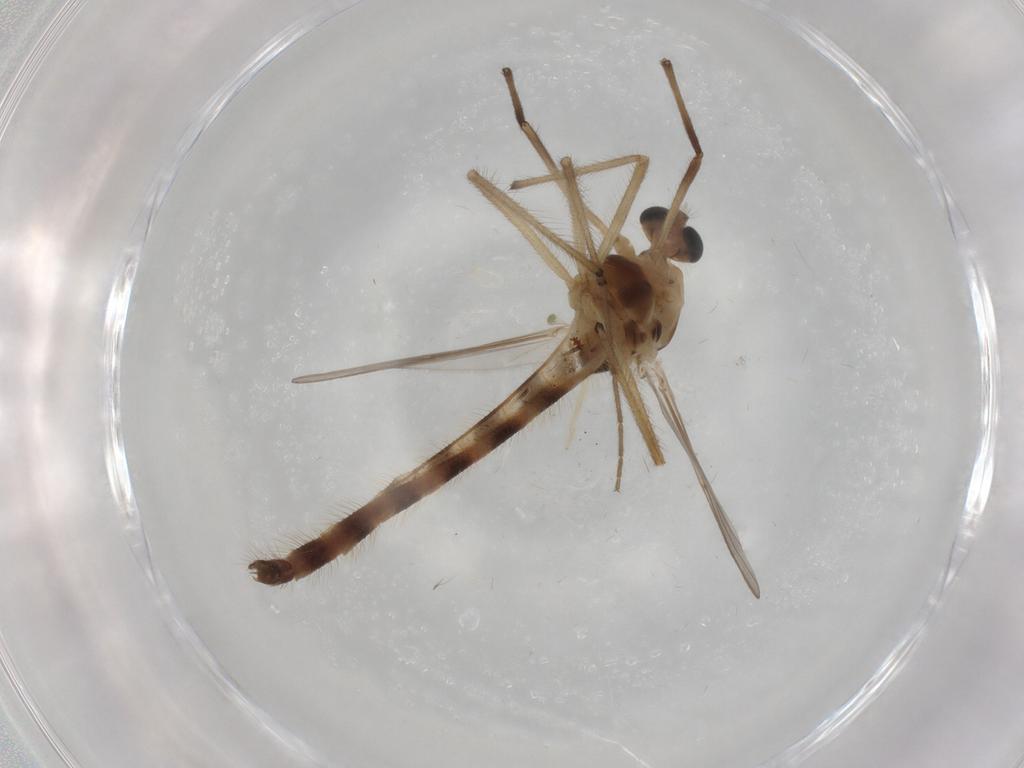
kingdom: Animalia
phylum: Arthropoda
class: Insecta
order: Diptera
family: Chironomidae
